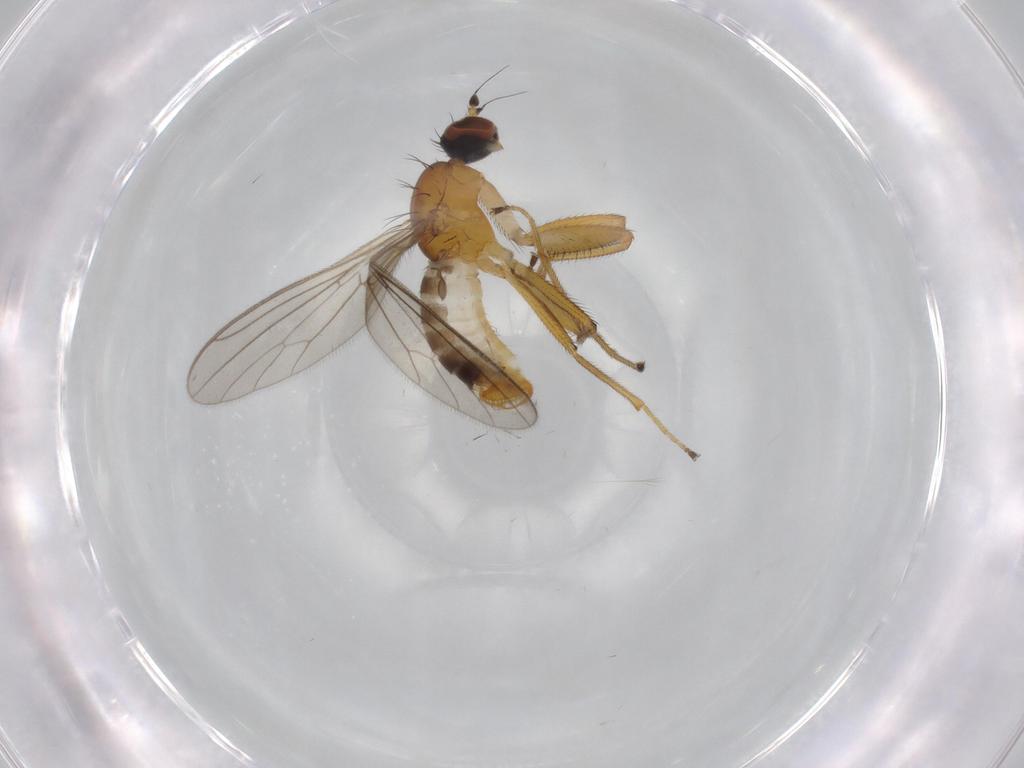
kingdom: Animalia
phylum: Arthropoda
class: Insecta
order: Diptera
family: Empididae
